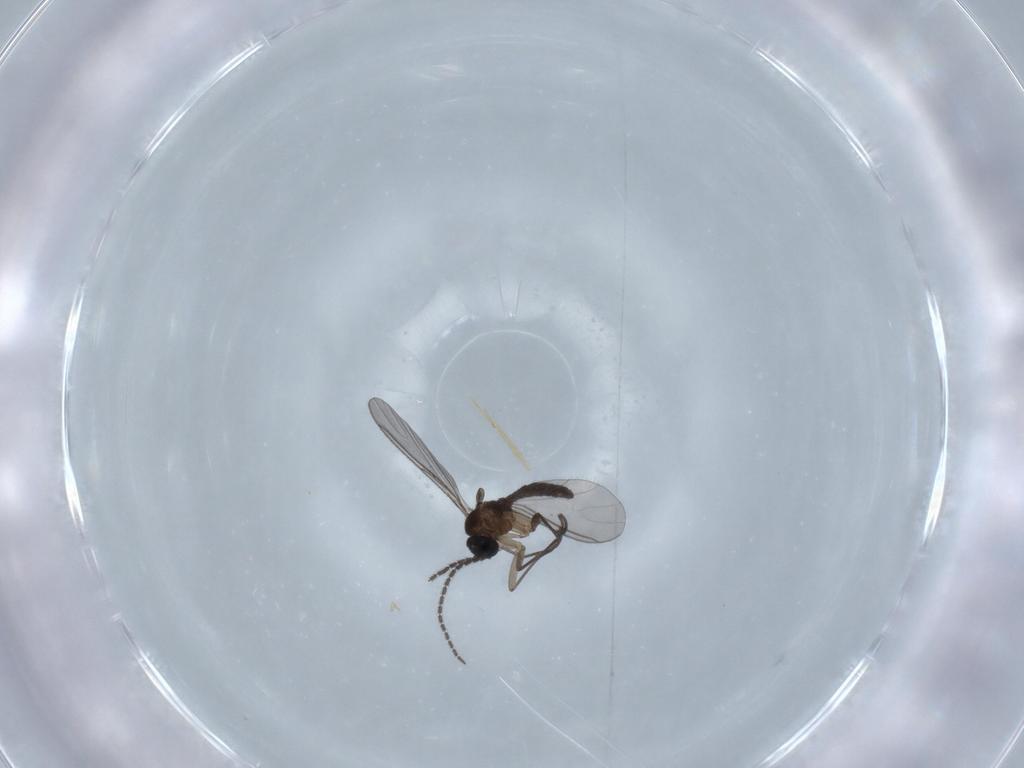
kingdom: Animalia
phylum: Arthropoda
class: Insecta
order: Diptera
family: Sciaridae
